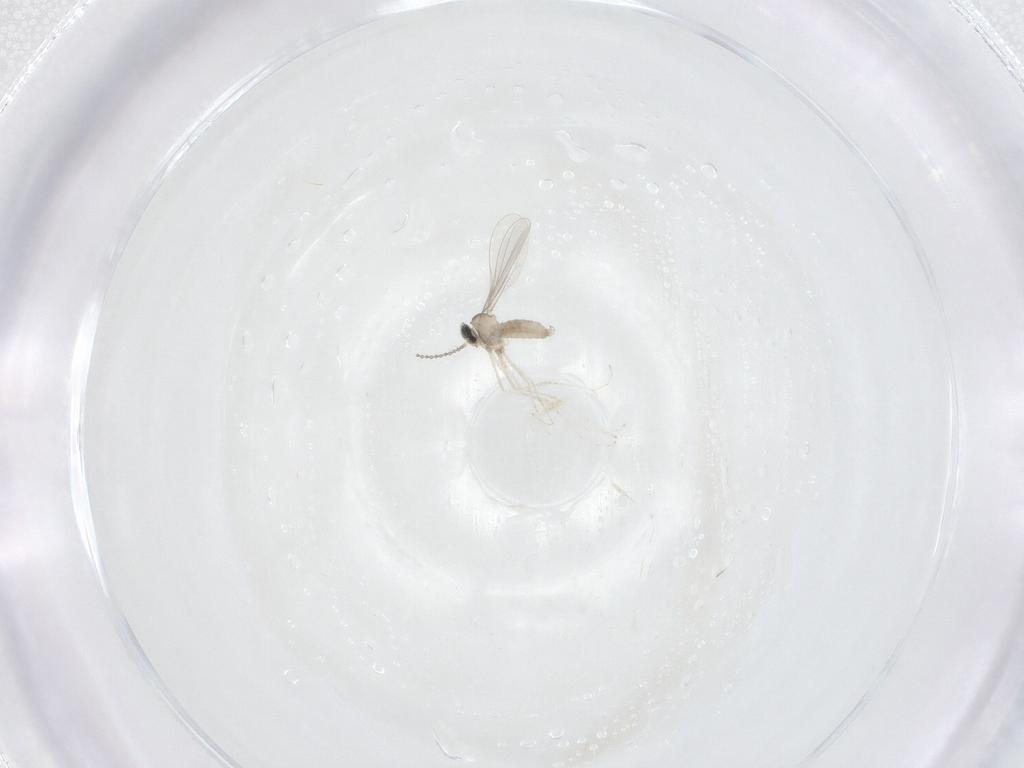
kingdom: Animalia
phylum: Arthropoda
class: Insecta
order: Diptera
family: Cecidomyiidae
